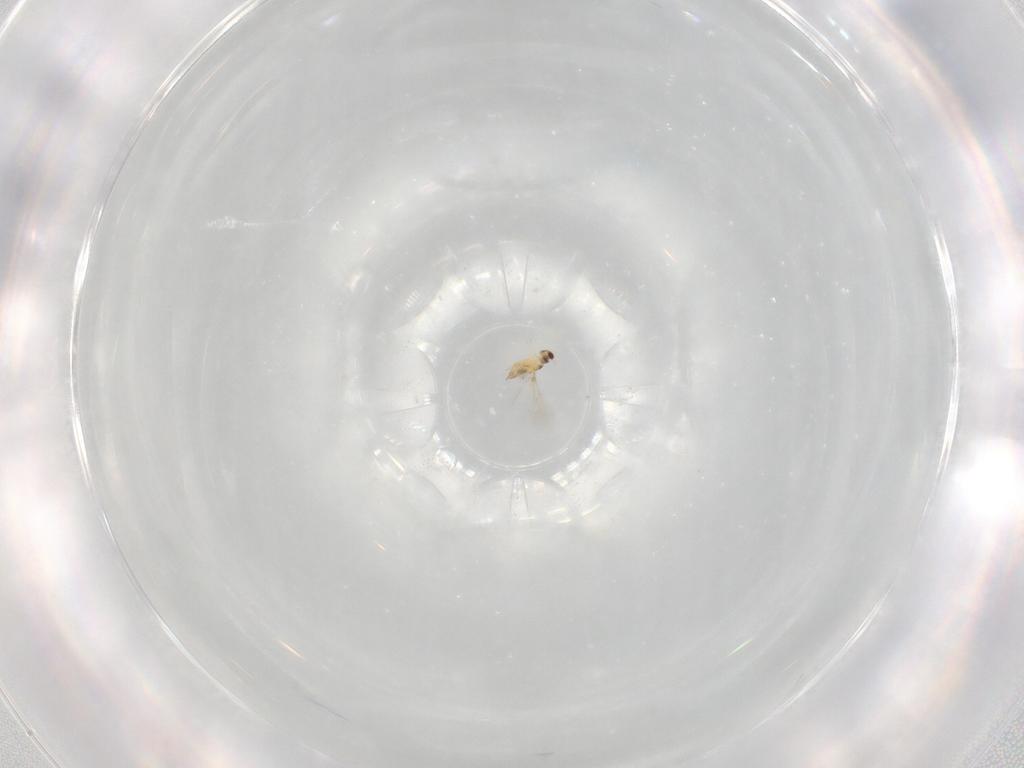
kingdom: Animalia
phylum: Arthropoda
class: Insecta
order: Hymenoptera
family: Mymaridae
